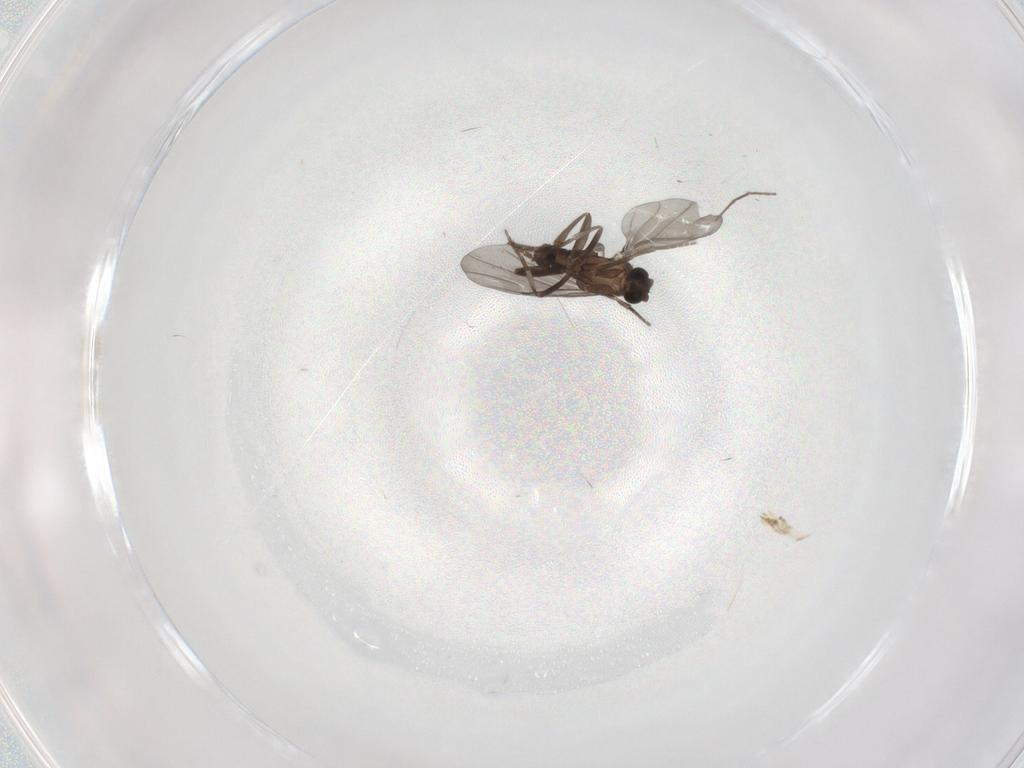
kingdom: Animalia
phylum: Arthropoda
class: Insecta
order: Diptera
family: Phoridae
